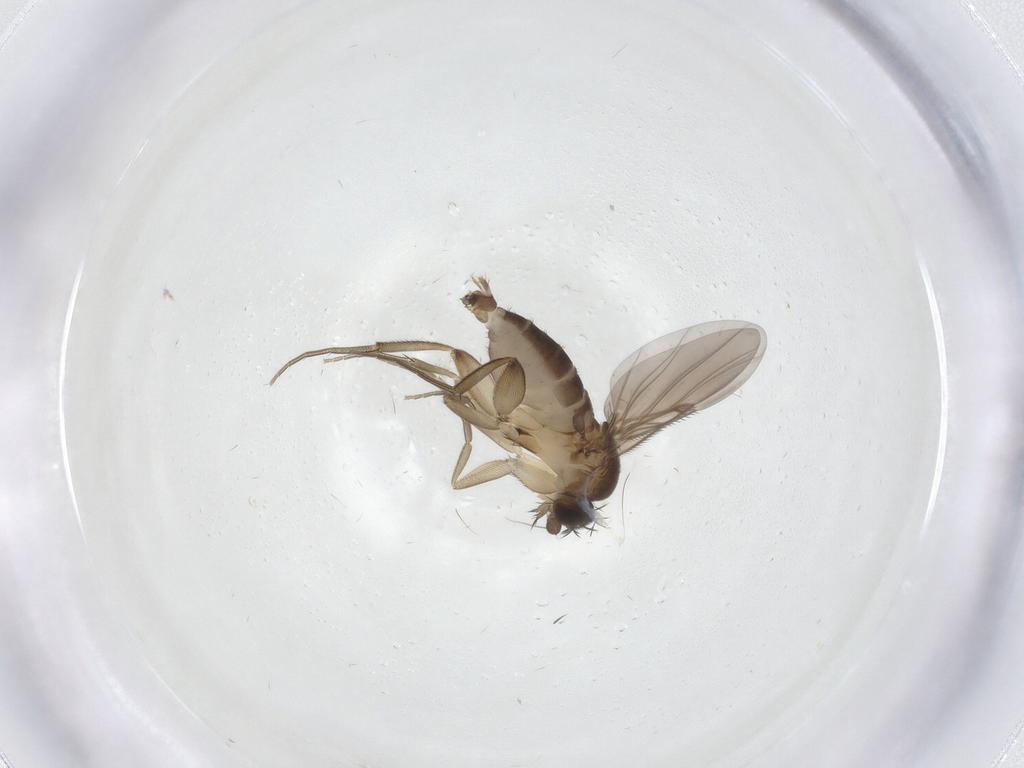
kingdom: Animalia
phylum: Arthropoda
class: Insecta
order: Diptera
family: Phoridae
